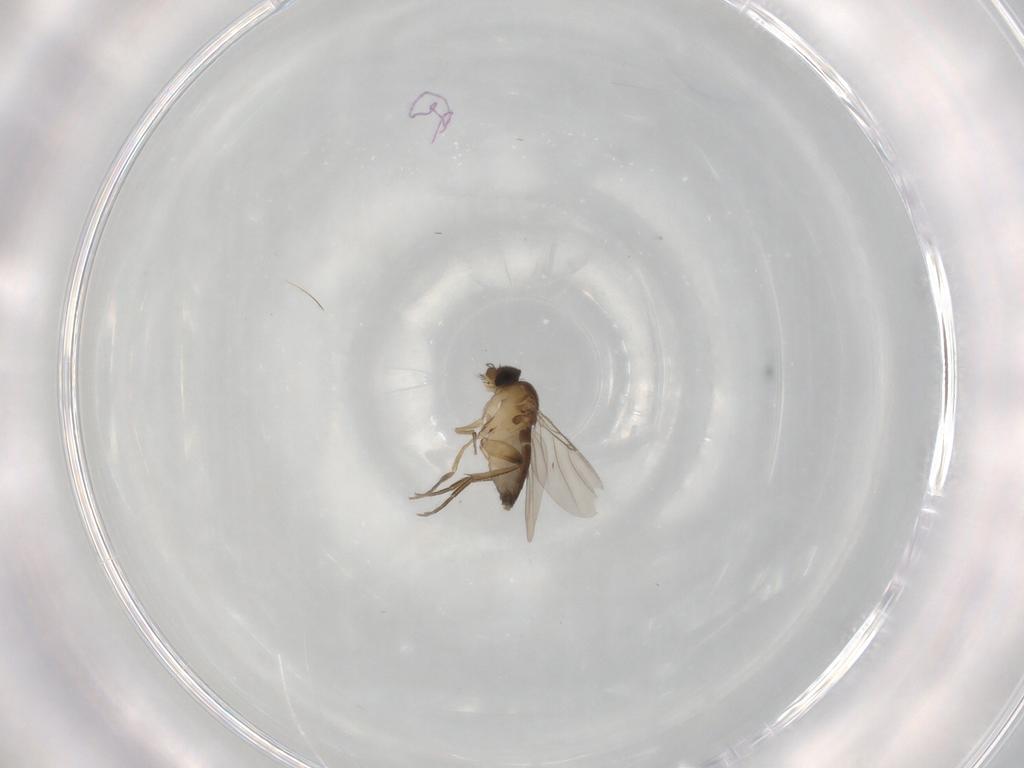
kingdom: Animalia
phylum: Arthropoda
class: Insecta
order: Diptera
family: Phoridae
